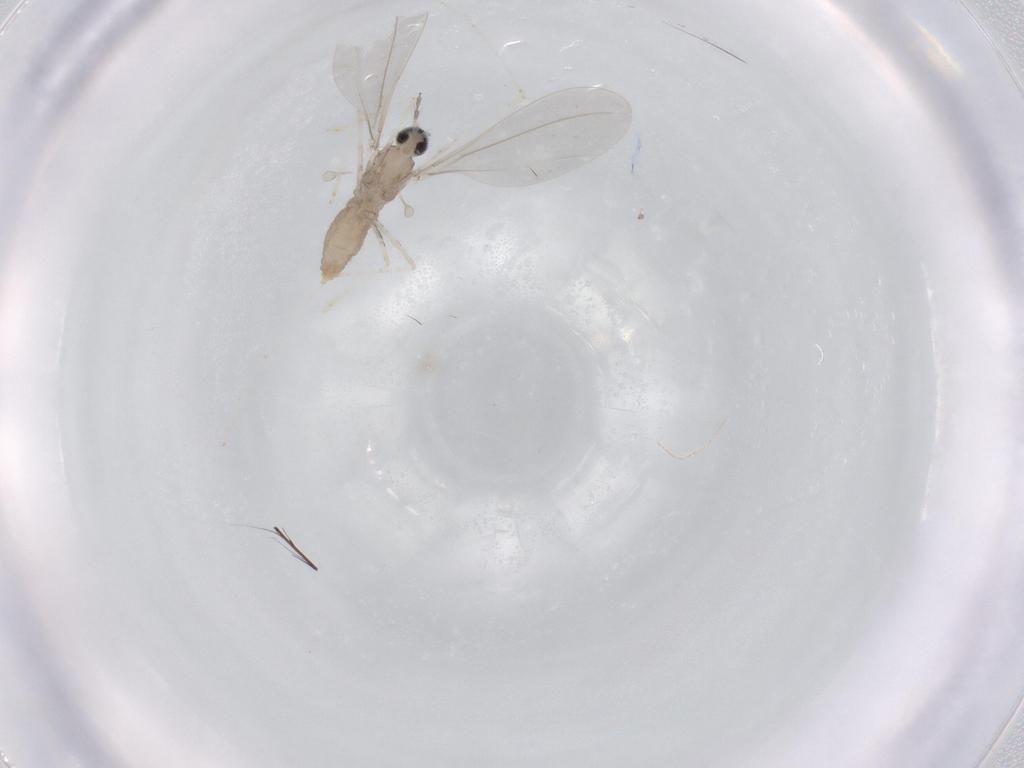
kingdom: Animalia
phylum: Arthropoda
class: Insecta
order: Diptera
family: Cecidomyiidae
